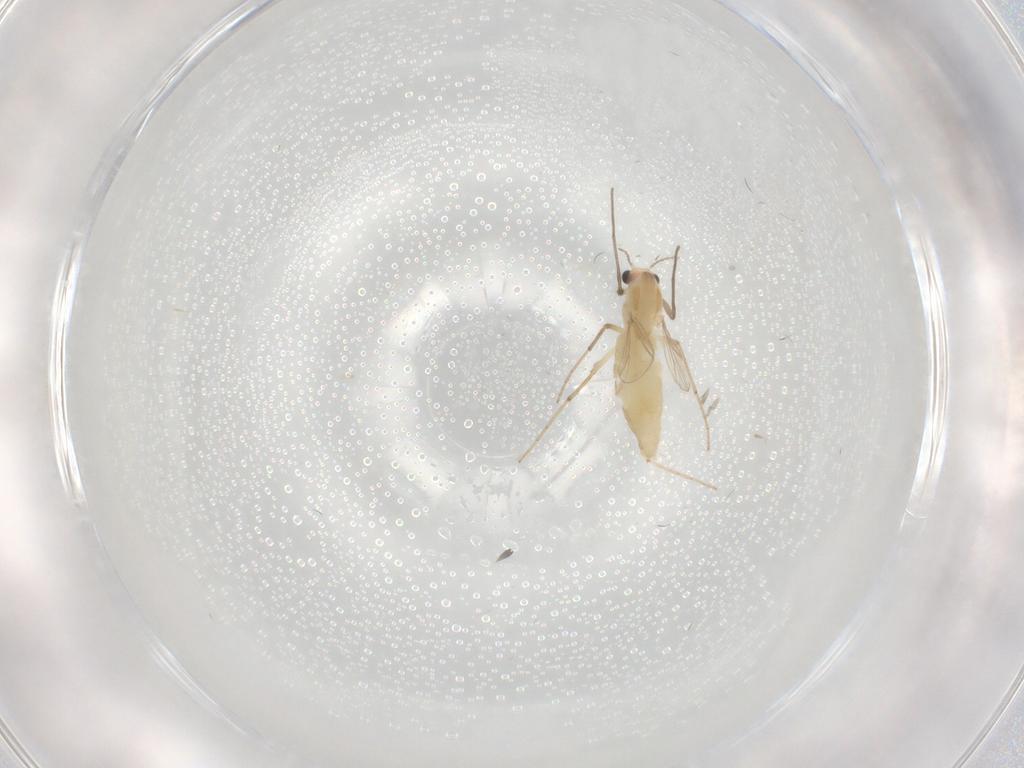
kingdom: Animalia
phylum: Arthropoda
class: Insecta
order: Diptera
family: Chironomidae
